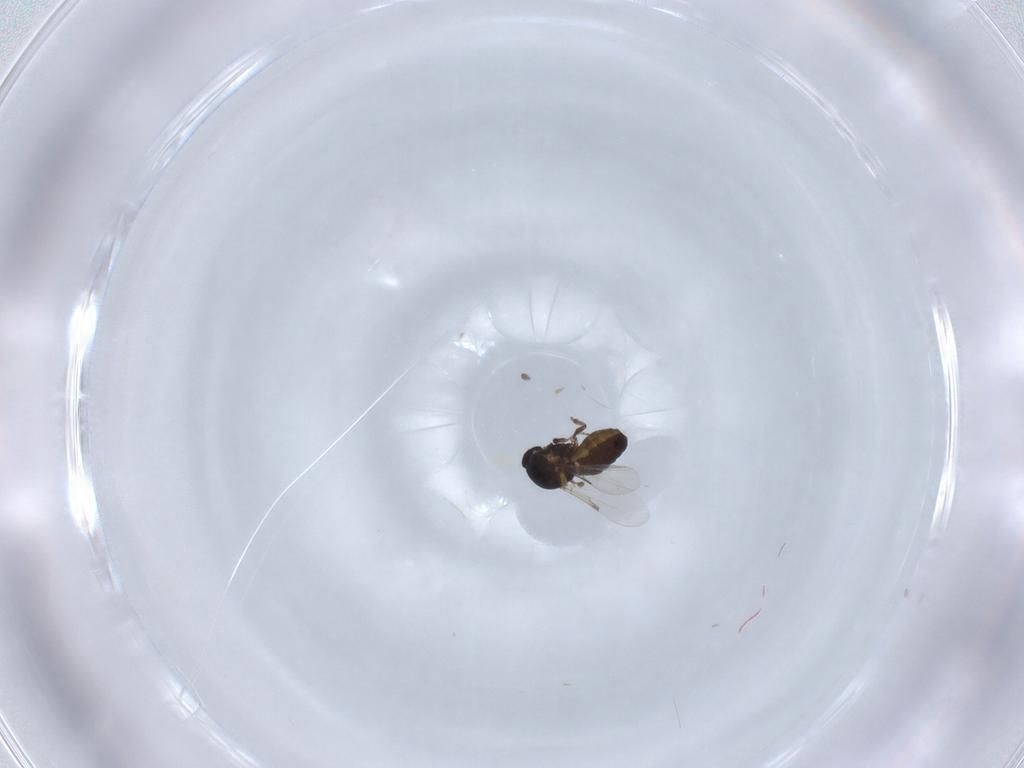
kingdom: Animalia
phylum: Arthropoda
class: Insecta
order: Diptera
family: Ceratopogonidae
